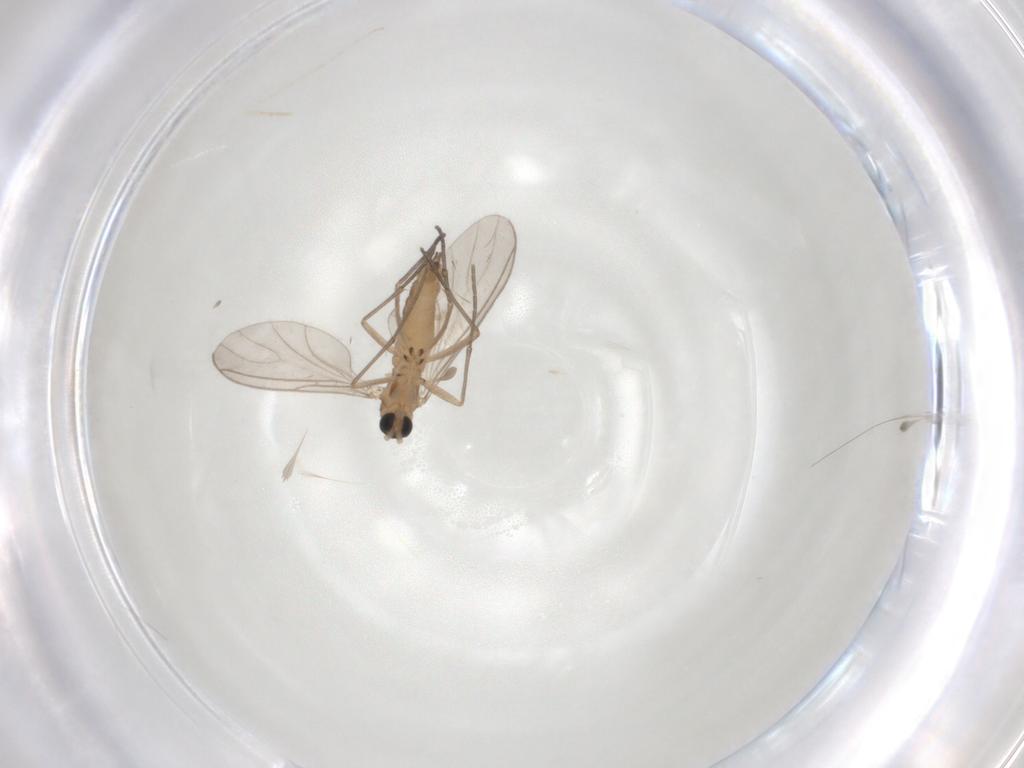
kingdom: Animalia
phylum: Arthropoda
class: Insecta
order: Diptera
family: Sciaridae
